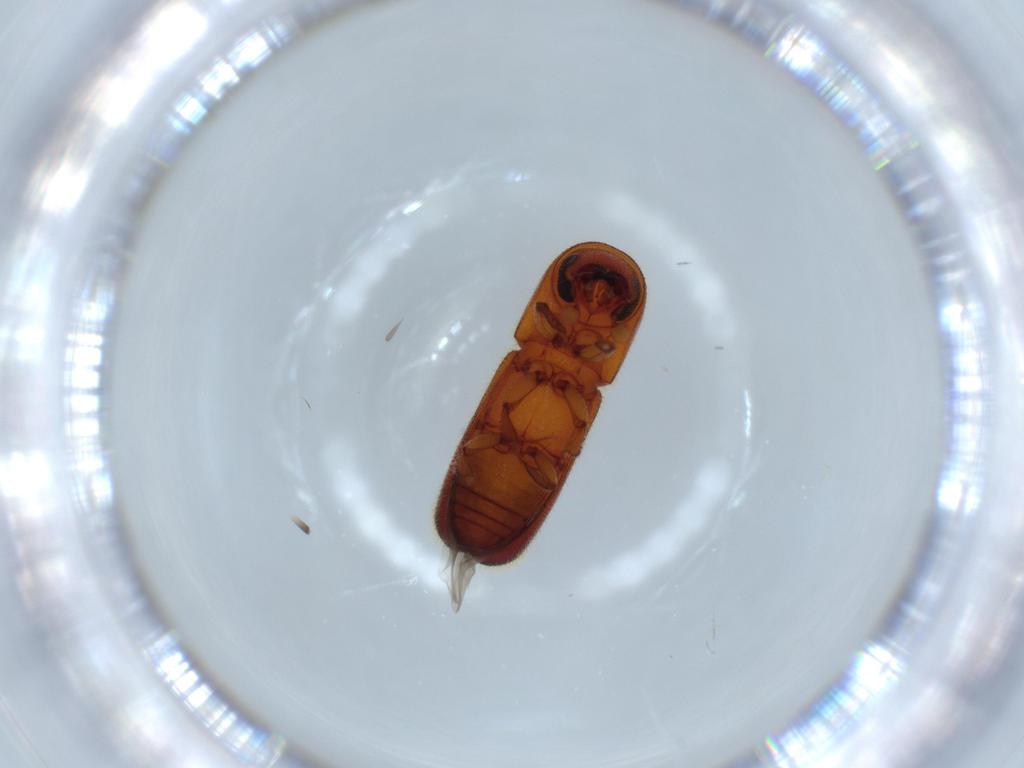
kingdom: Animalia
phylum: Arthropoda
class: Insecta
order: Coleoptera
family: Curculionidae
